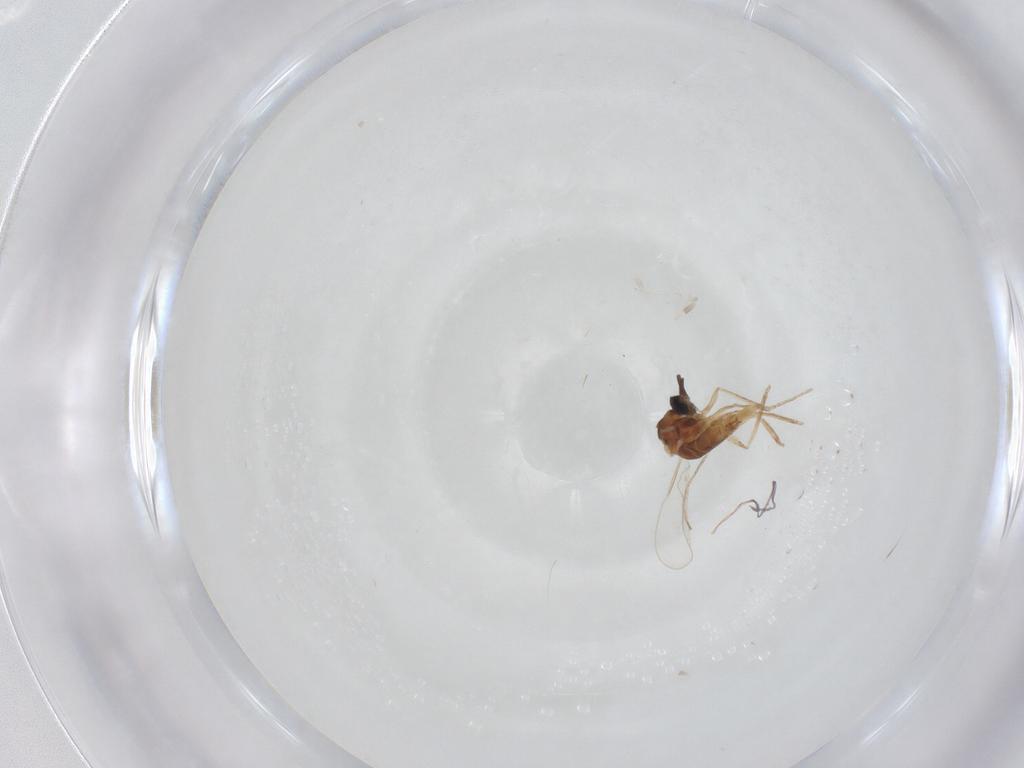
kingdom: Animalia
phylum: Arthropoda
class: Insecta
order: Diptera
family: Cecidomyiidae
